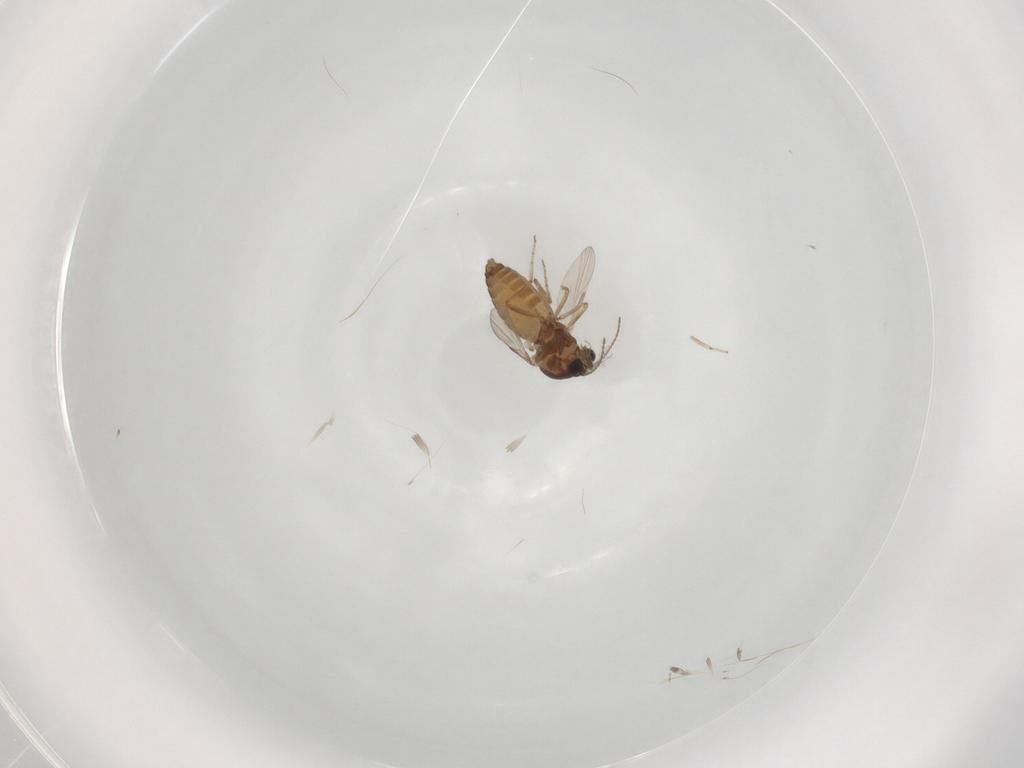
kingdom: Animalia
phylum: Arthropoda
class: Insecta
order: Diptera
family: Ceratopogonidae
